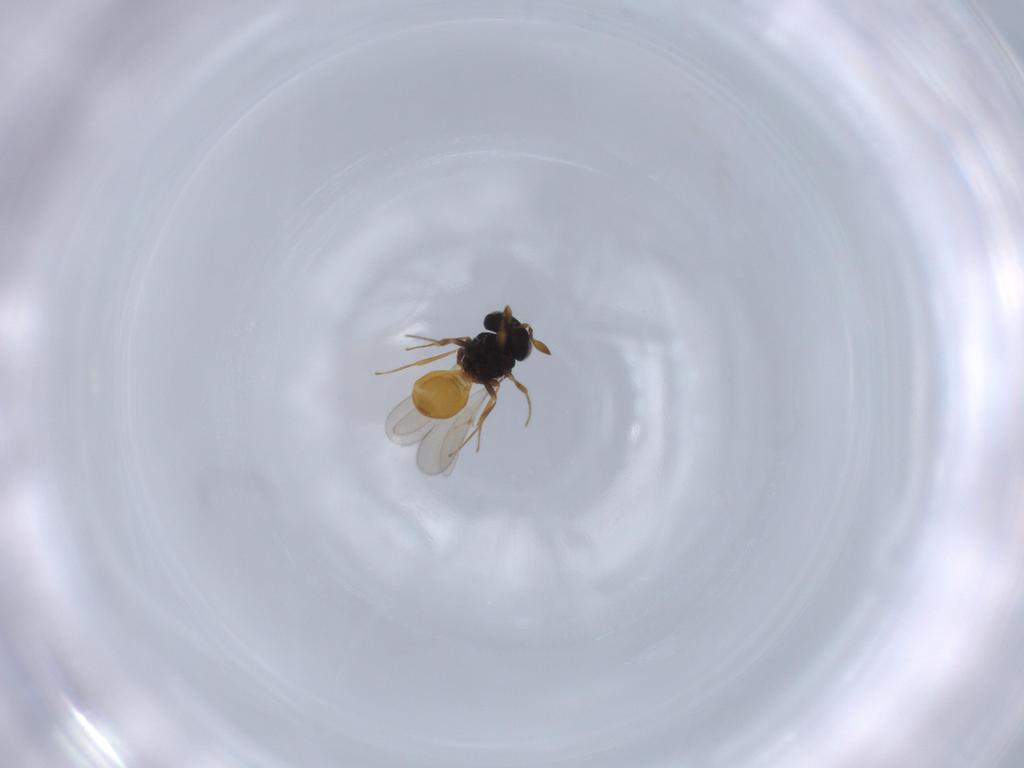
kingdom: Animalia
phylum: Arthropoda
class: Insecta
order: Hymenoptera
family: Scelionidae
